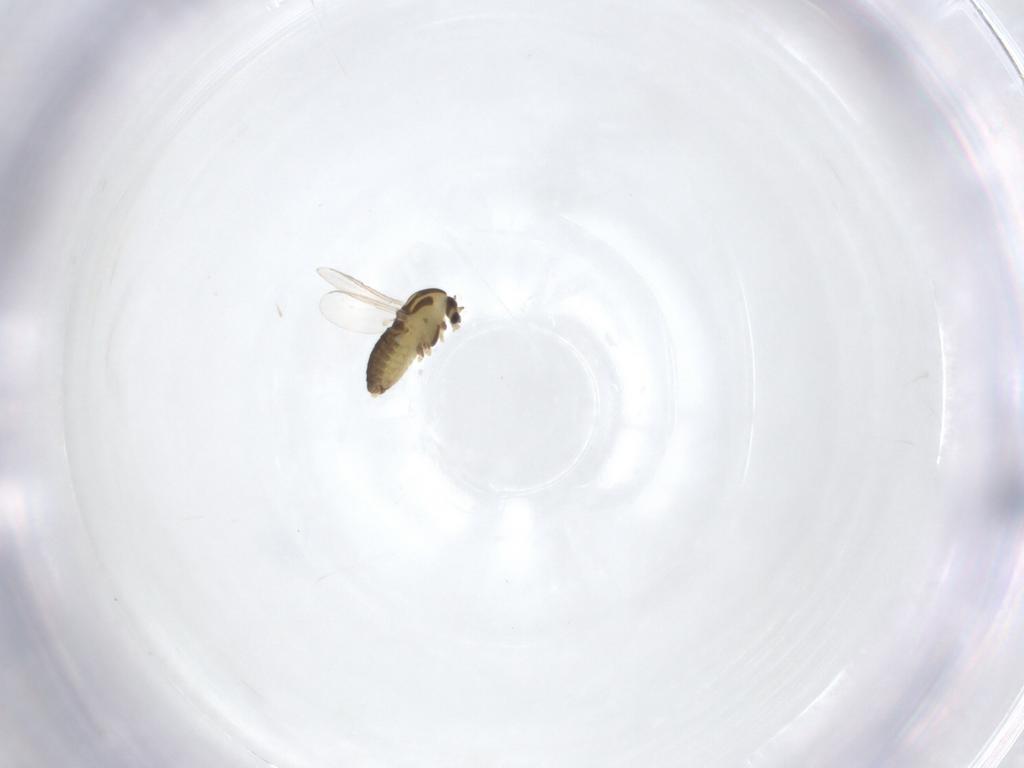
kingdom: Animalia
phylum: Arthropoda
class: Insecta
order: Diptera
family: Chironomidae
